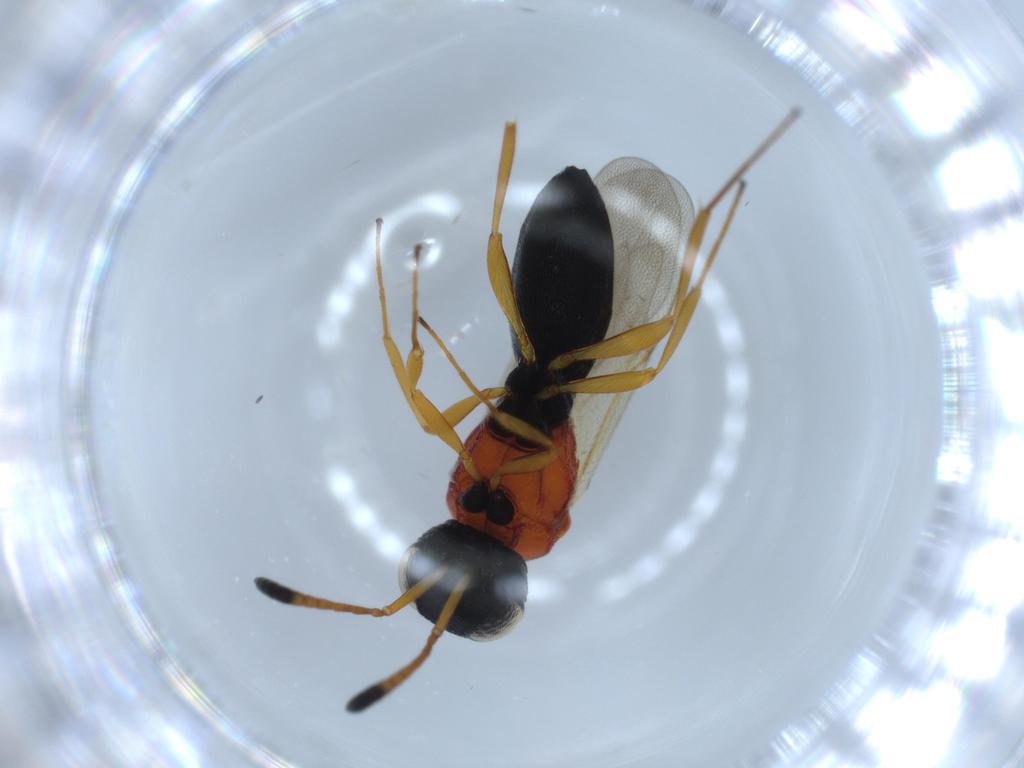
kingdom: Animalia
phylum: Arthropoda
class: Insecta
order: Hymenoptera
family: Scelionidae
